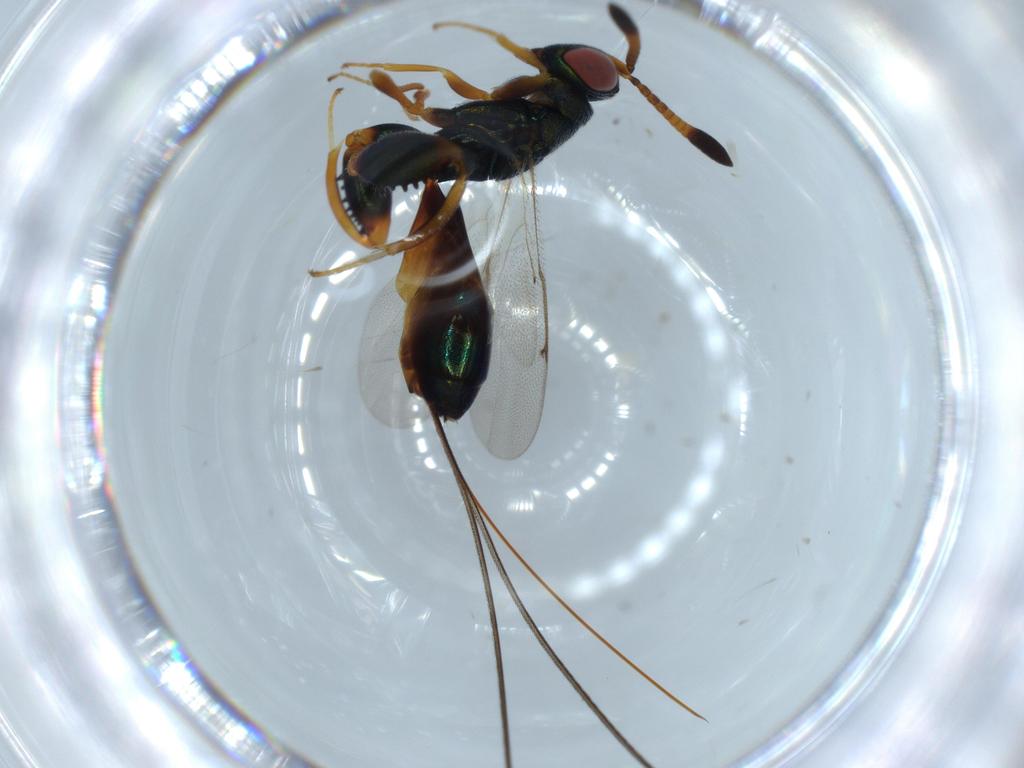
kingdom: Animalia
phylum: Arthropoda
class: Insecta
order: Hymenoptera
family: Torymidae
